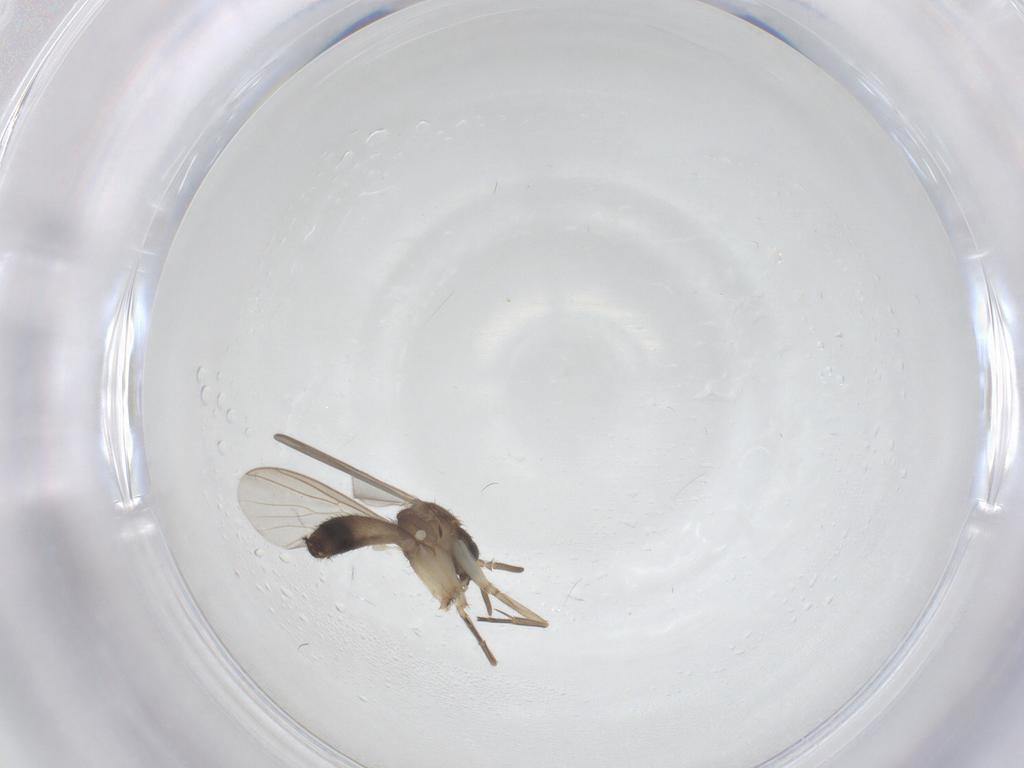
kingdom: Animalia
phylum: Arthropoda
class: Insecta
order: Diptera
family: Mycetophilidae
